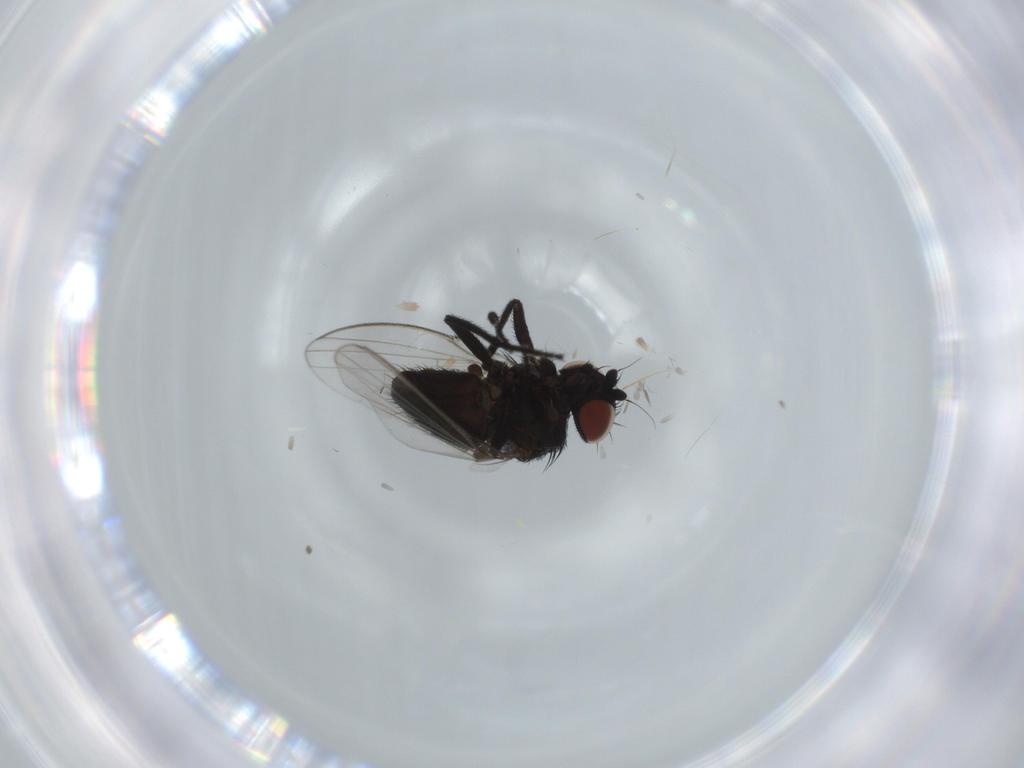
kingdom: Animalia
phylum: Arthropoda
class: Insecta
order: Diptera
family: Milichiidae
